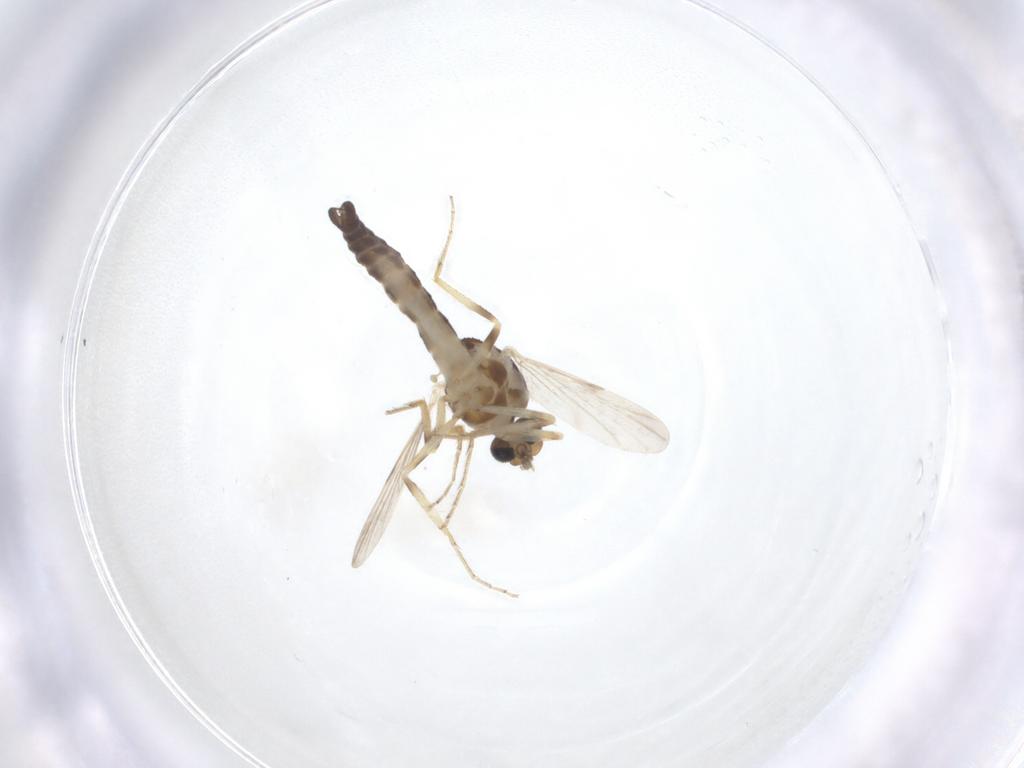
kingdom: Animalia
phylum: Arthropoda
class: Insecta
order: Diptera
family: Ceratopogonidae
